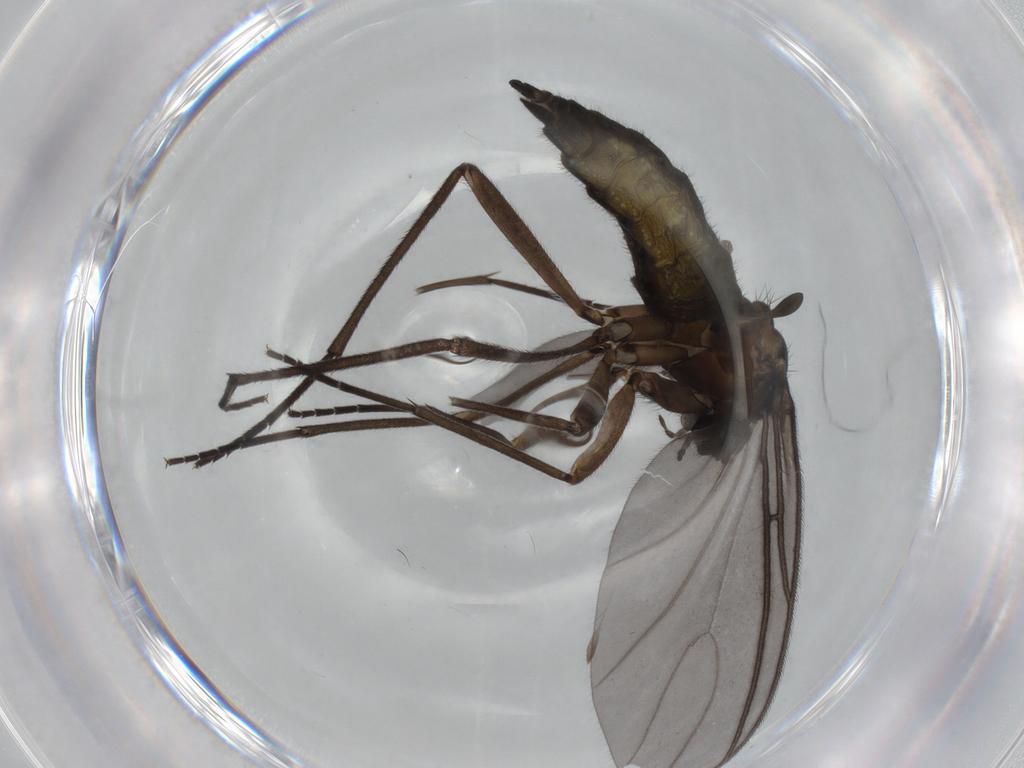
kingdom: Animalia
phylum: Arthropoda
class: Insecta
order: Diptera
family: Sciaridae
